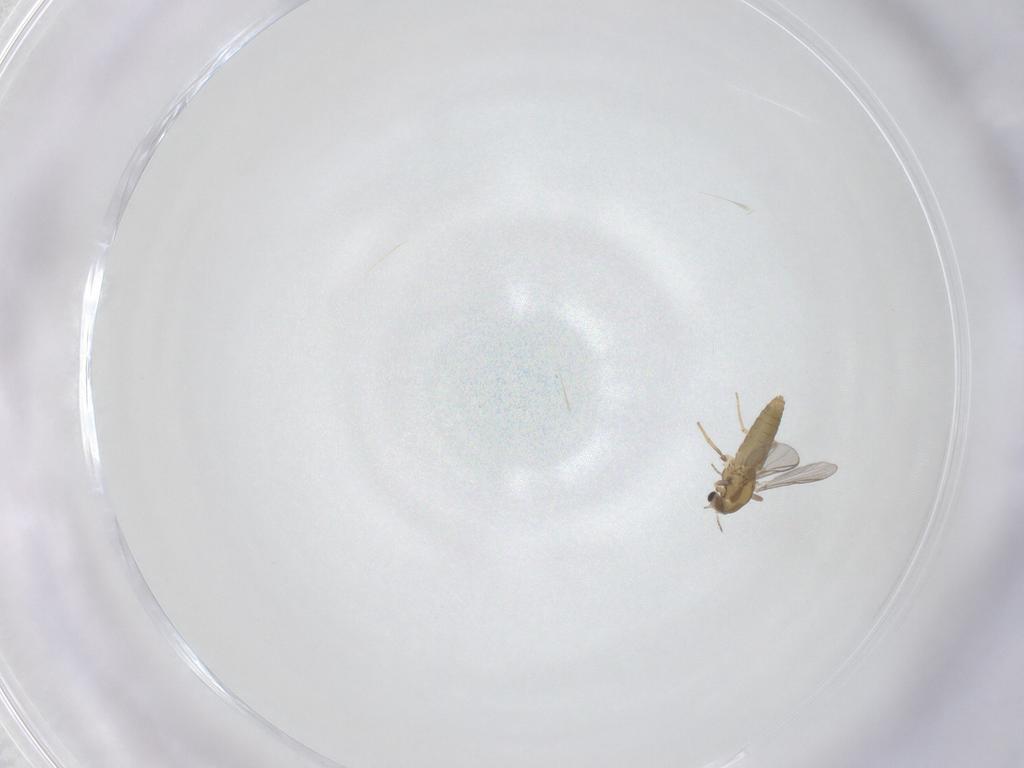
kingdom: Animalia
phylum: Arthropoda
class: Insecta
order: Diptera
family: Chironomidae
